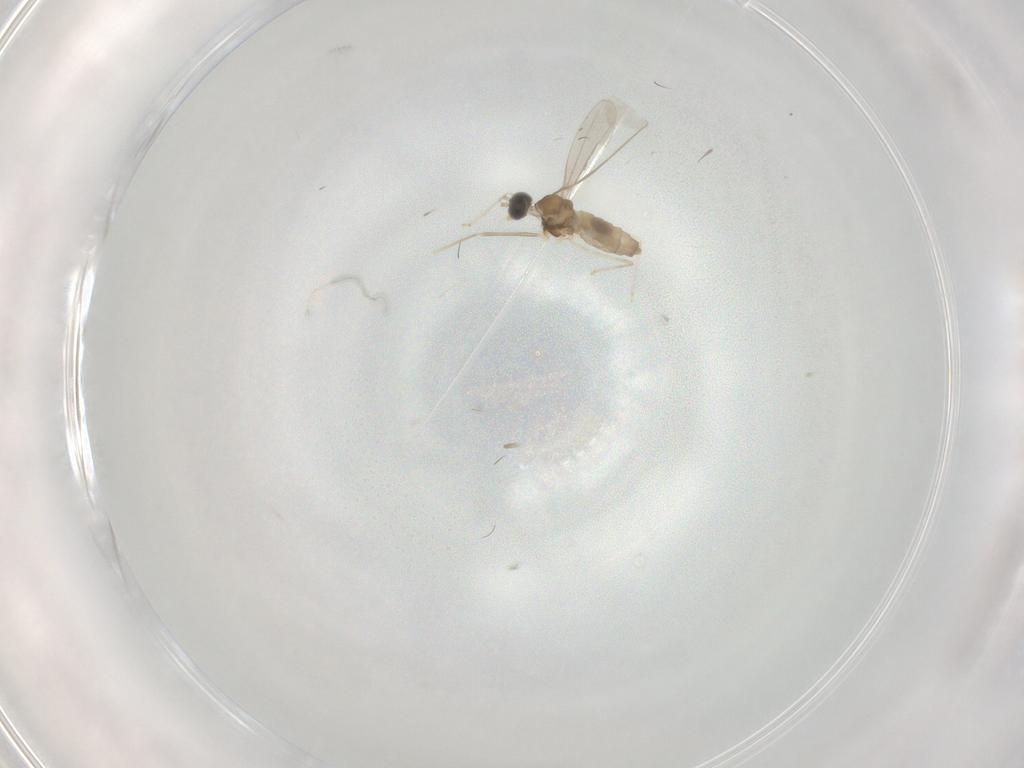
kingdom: Animalia
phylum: Arthropoda
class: Insecta
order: Diptera
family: Cecidomyiidae
